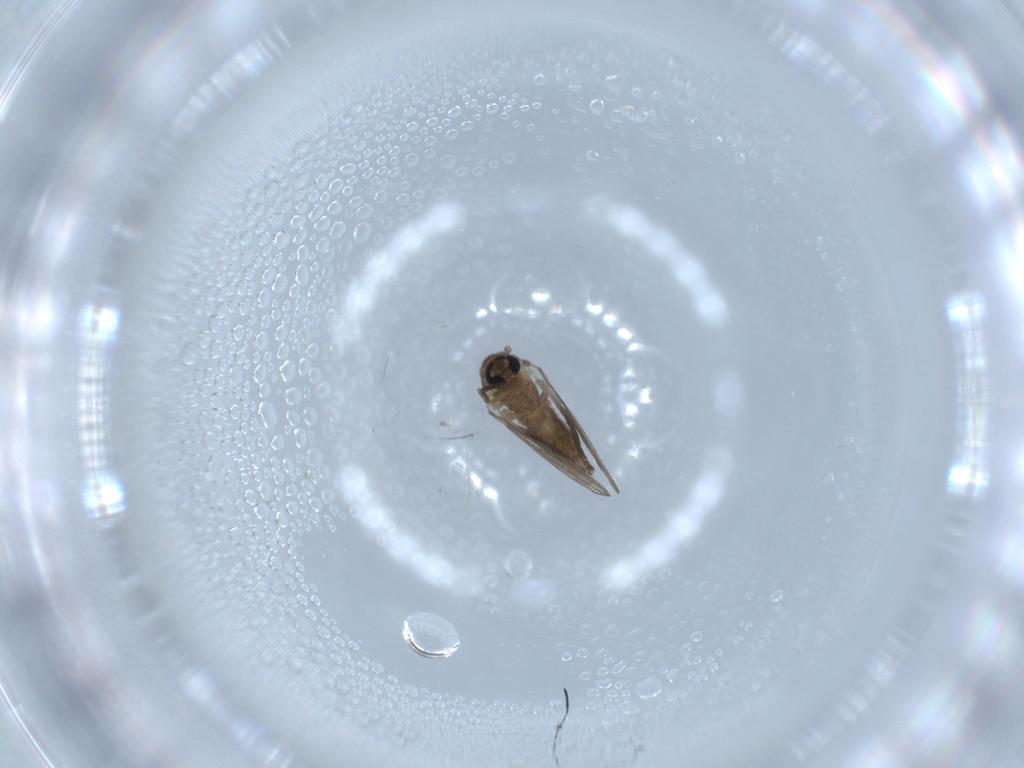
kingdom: Animalia
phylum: Arthropoda
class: Insecta
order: Diptera
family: Psychodidae
